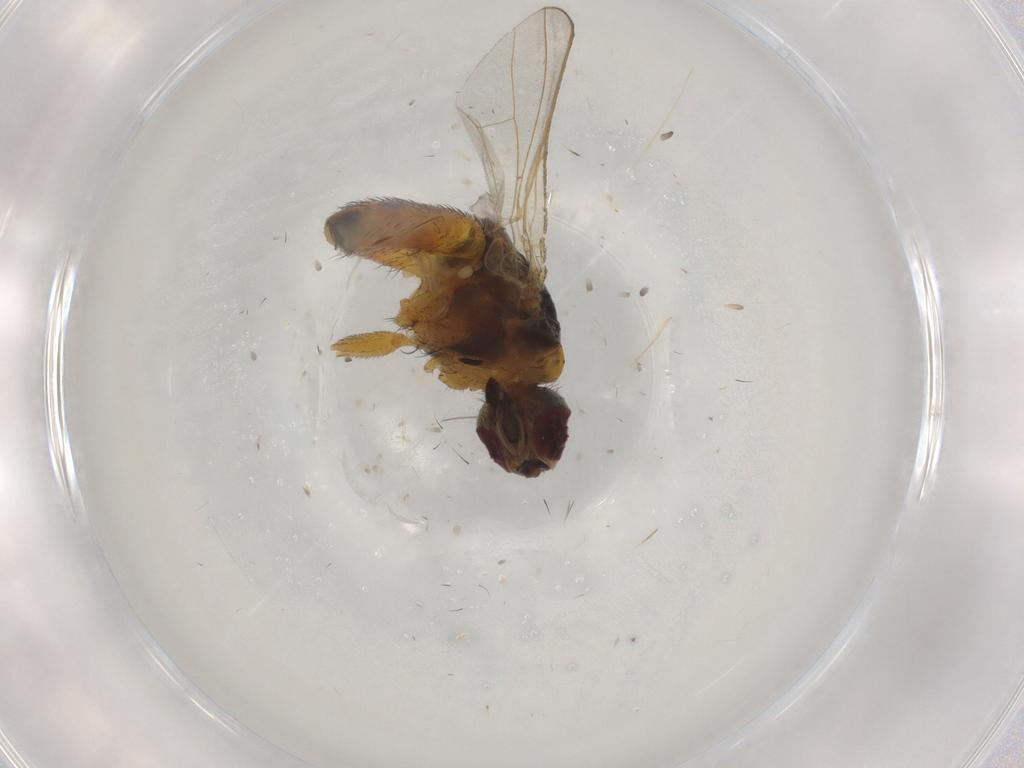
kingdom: Animalia
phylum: Arthropoda
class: Insecta
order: Diptera
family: Muscidae
